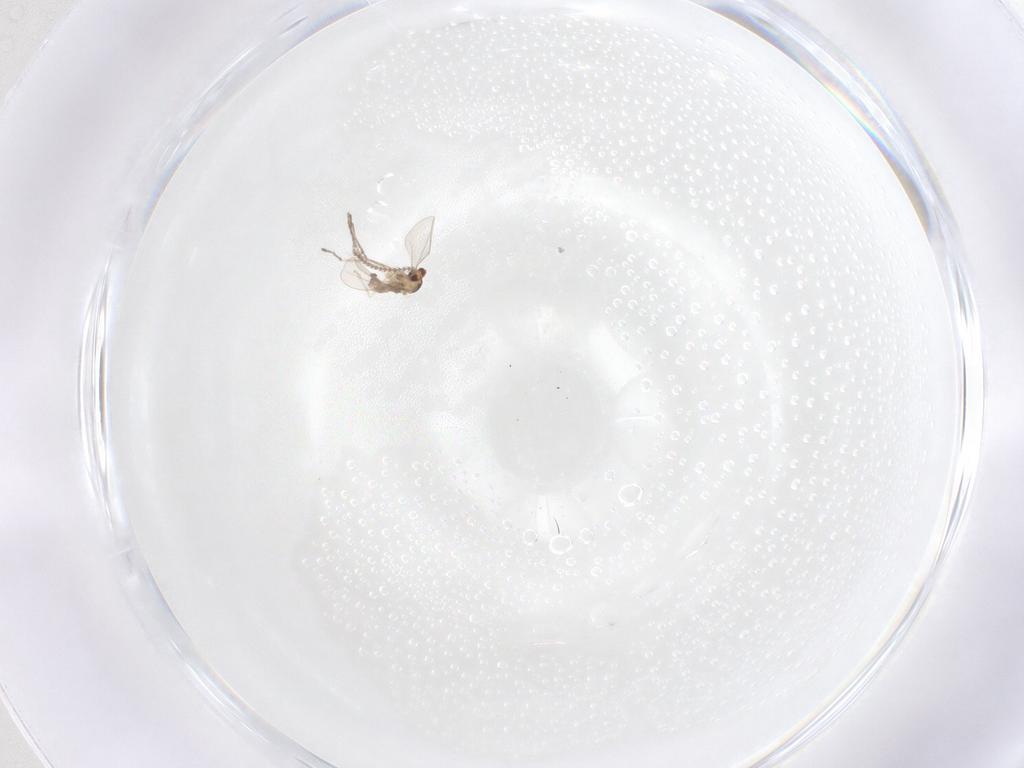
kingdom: Animalia
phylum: Arthropoda
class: Insecta
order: Diptera
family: Cecidomyiidae
